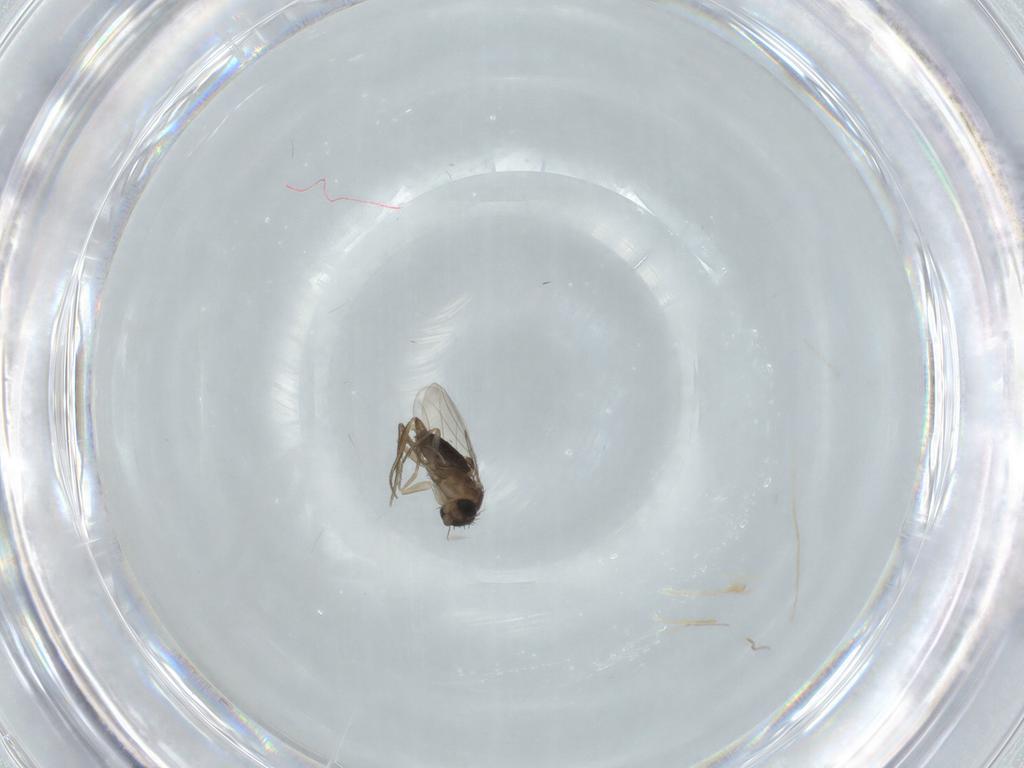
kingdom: Animalia
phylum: Arthropoda
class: Insecta
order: Diptera
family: Phoridae
